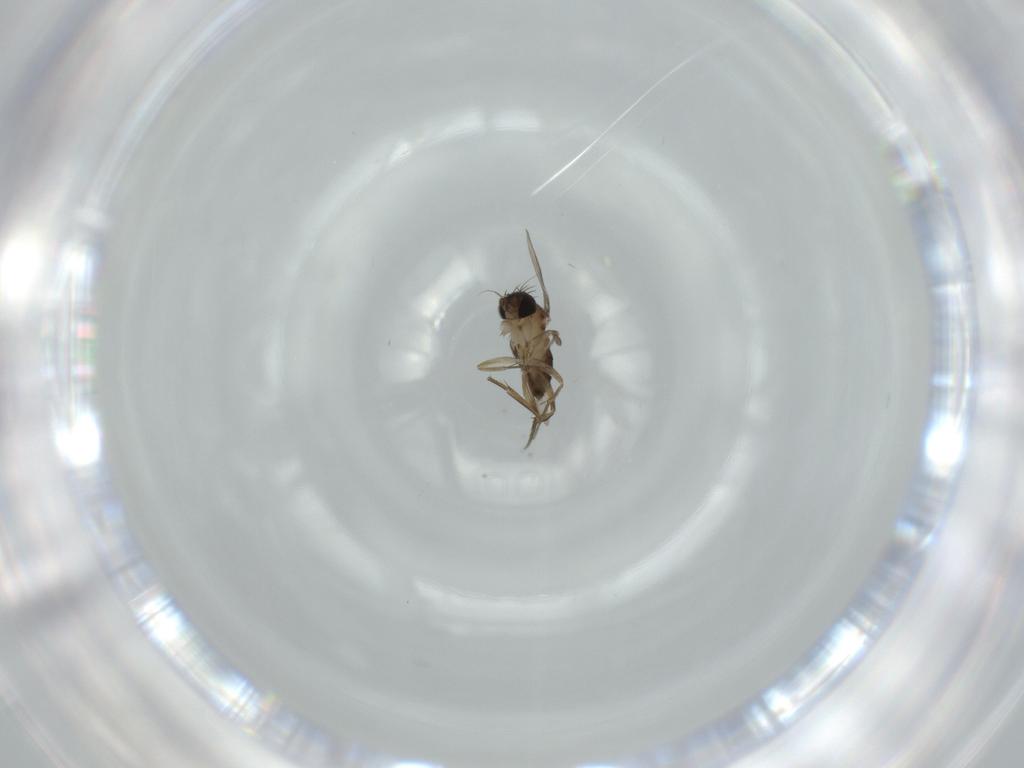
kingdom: Animalia
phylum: Arthropoda
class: Insecta
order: Diptera
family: Phoridae
